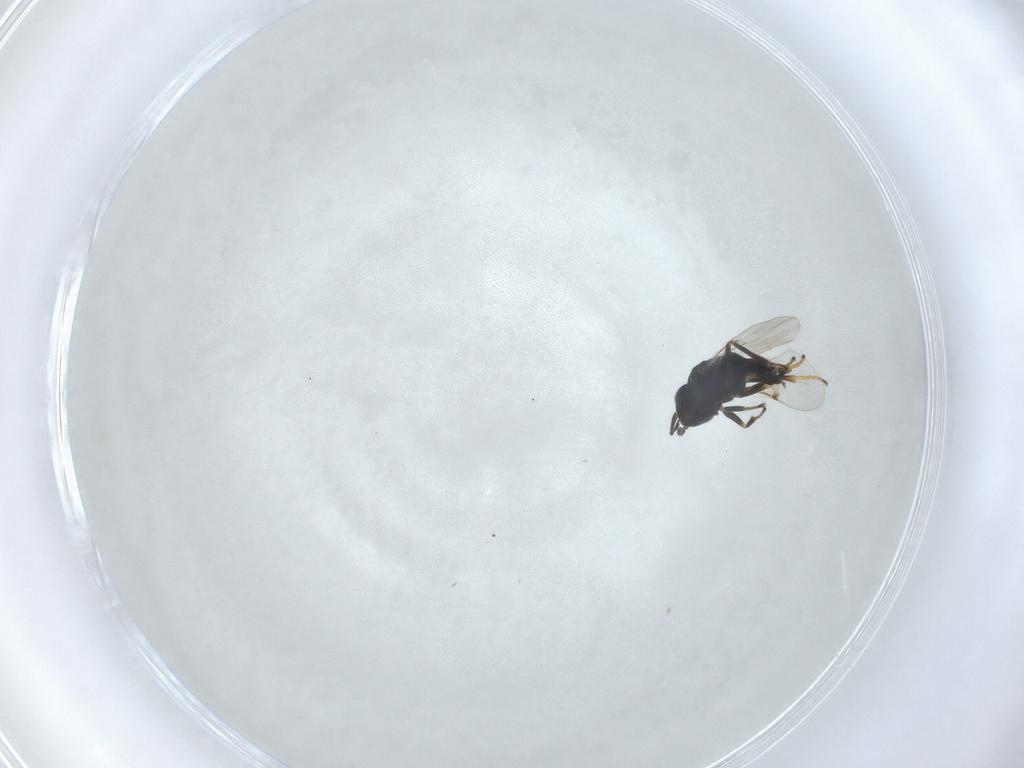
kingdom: Animalia
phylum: Arthropoda
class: Insecta
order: Hymenoptera
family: Encyrtidae
